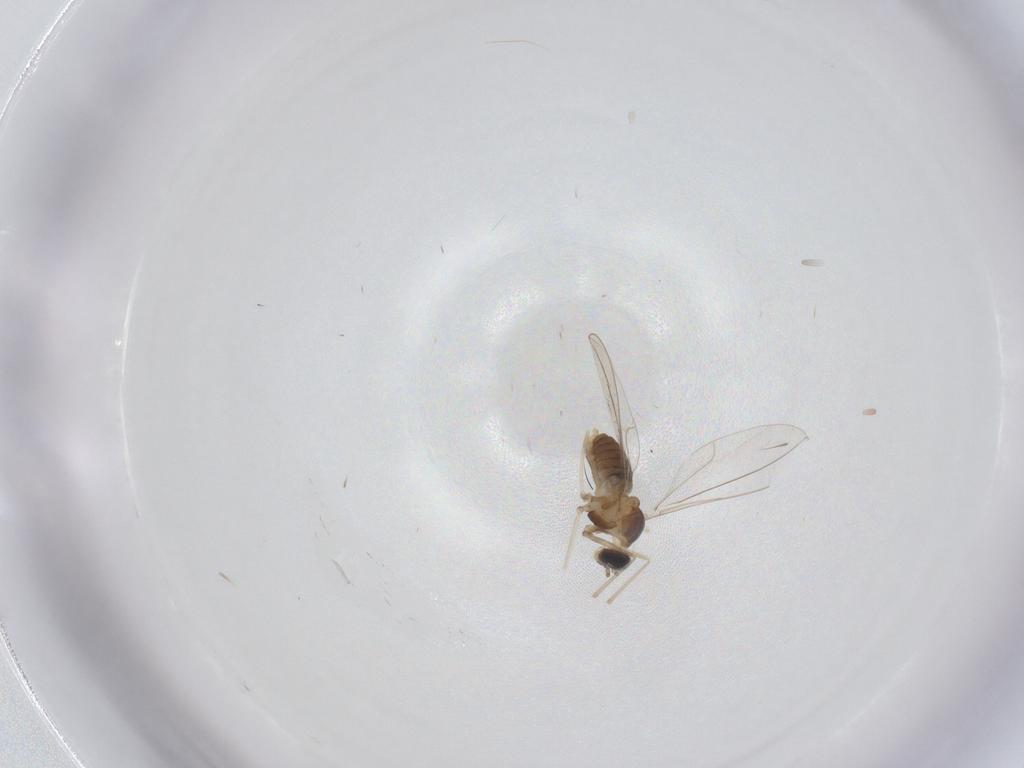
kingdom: Animalia
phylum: Arthropoda
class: Insecta
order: Diptera
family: Cecidomyiidae
